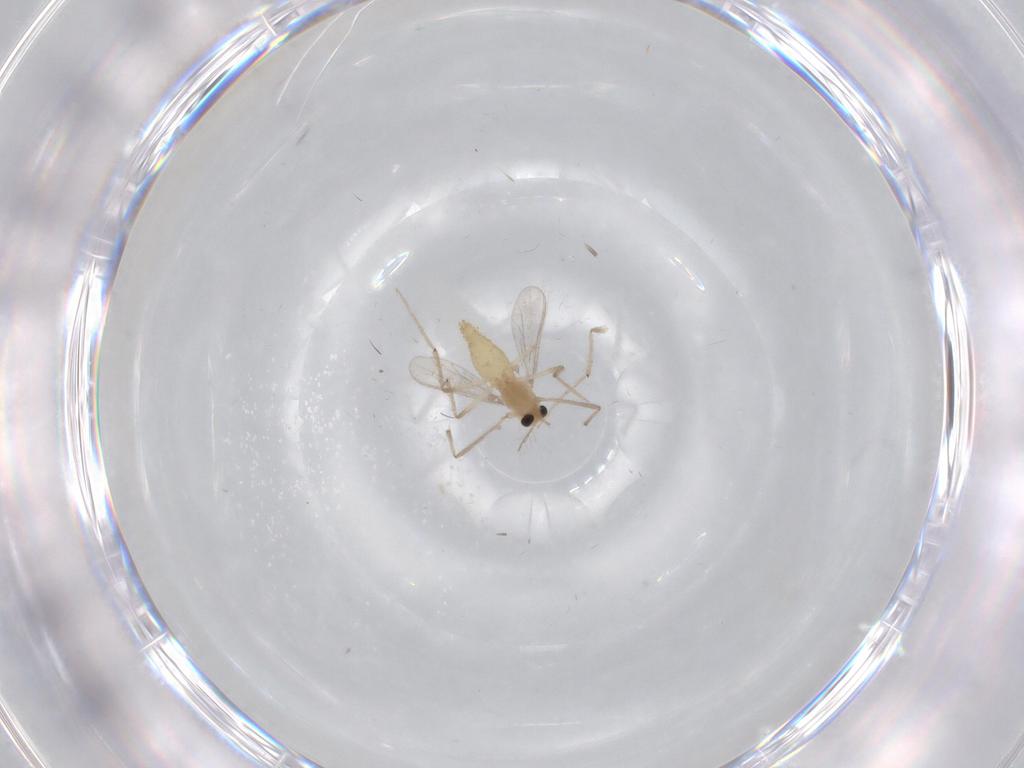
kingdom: Animalia
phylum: Arthropoda
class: Insecta
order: Diptera
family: Chironomidae
